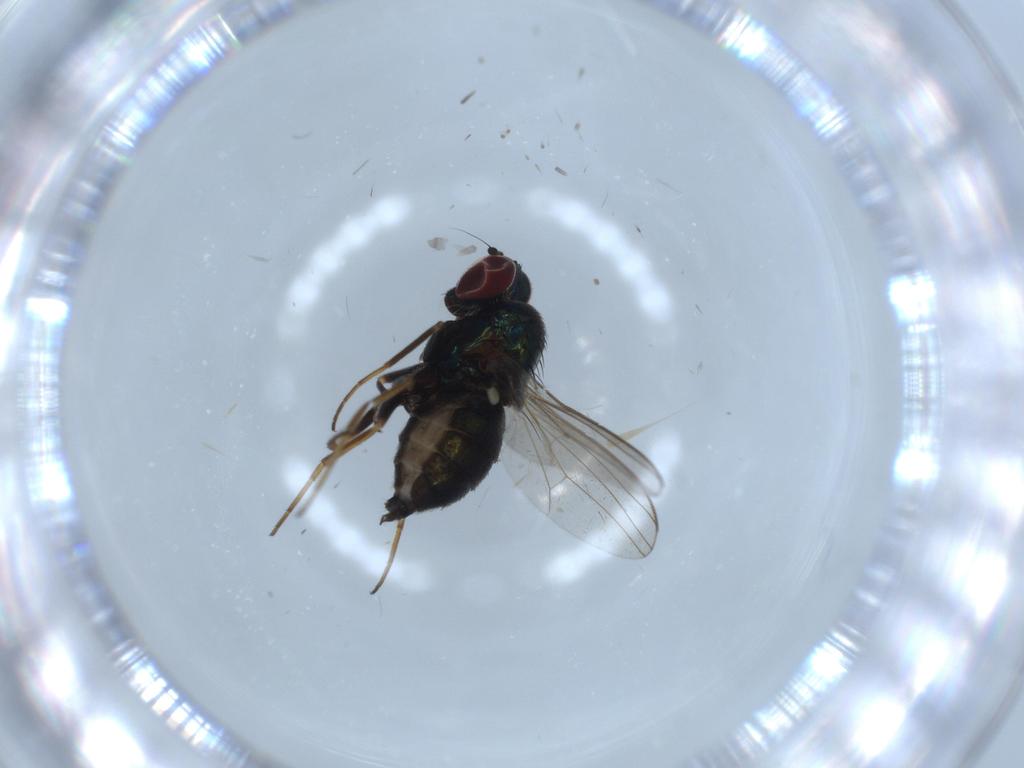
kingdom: Animalia
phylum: Arthropoda
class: Insecta
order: Diptera
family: Dolichopodidae
